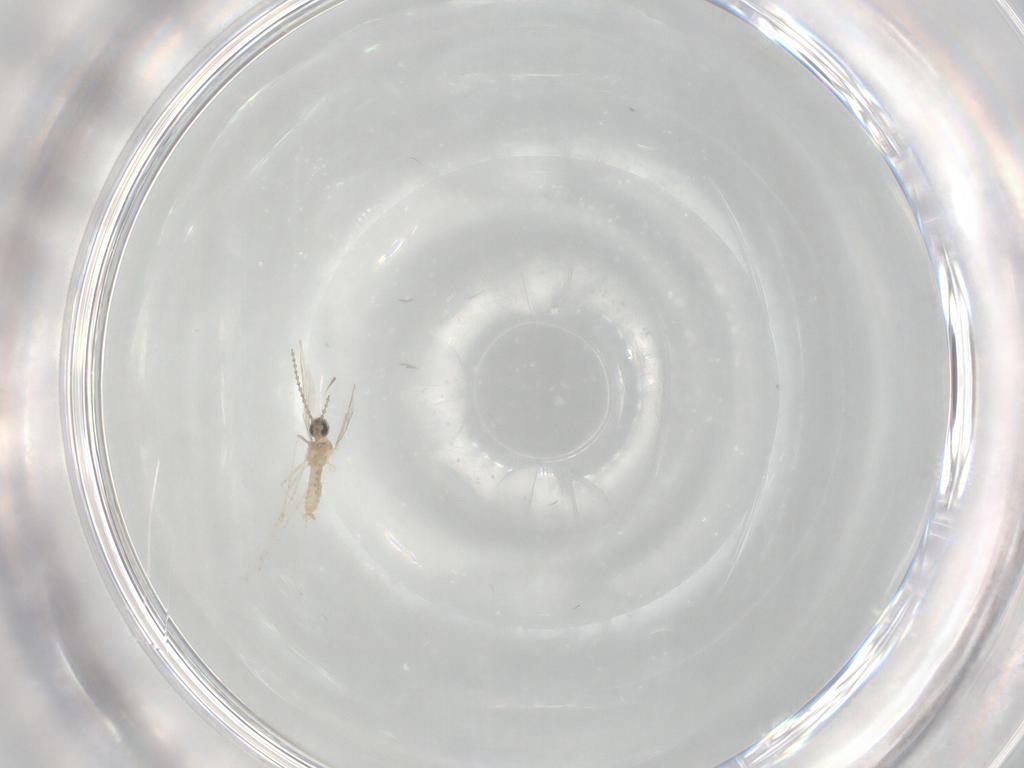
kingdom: Animalia
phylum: Arthropoda
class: Insecta
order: Diptera
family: Cecidomyiidae
